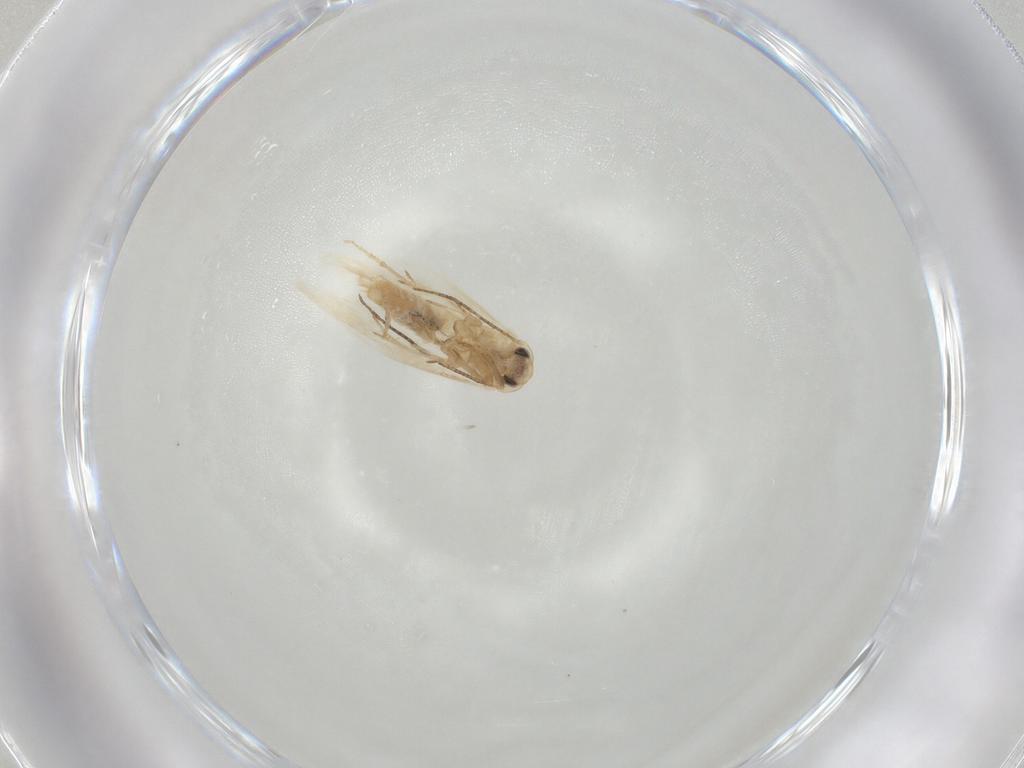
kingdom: Animalia
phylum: Arthropoda
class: Insecta
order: Lepidoptera
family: Bucculatricidae
